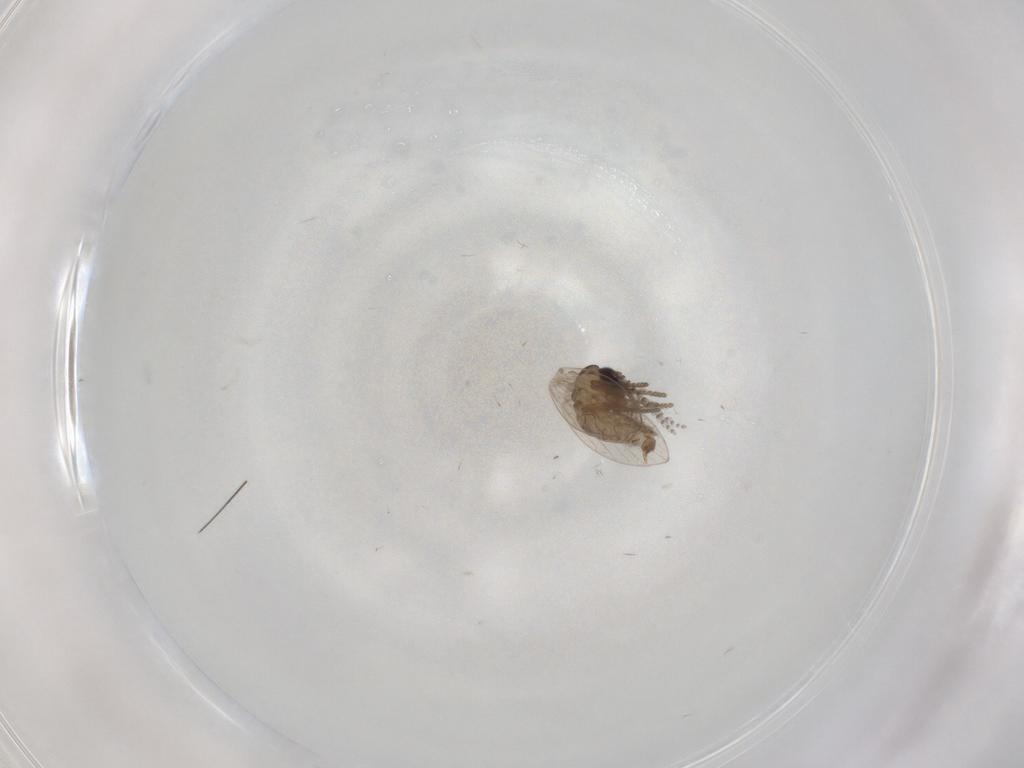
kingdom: Animalia
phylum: Arthropoda
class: Insecta
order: Diptera
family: Psychodidae
